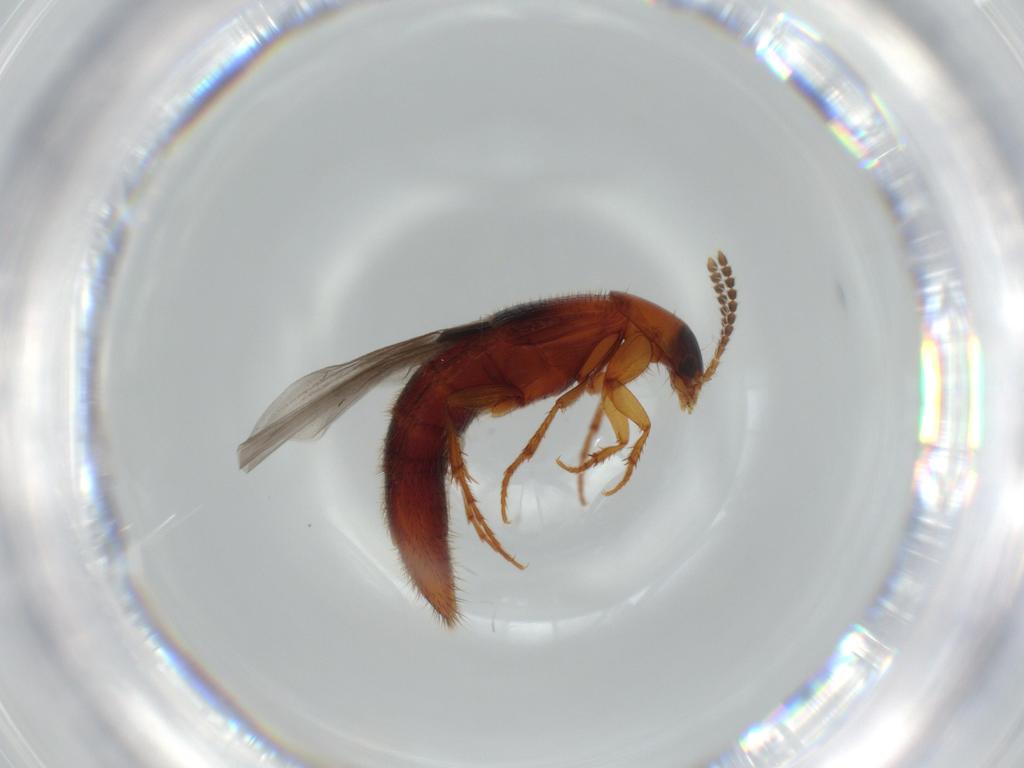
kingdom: Animalia
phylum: Arthropoda
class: Insecta
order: Coleoptera
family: Staphylinidae
